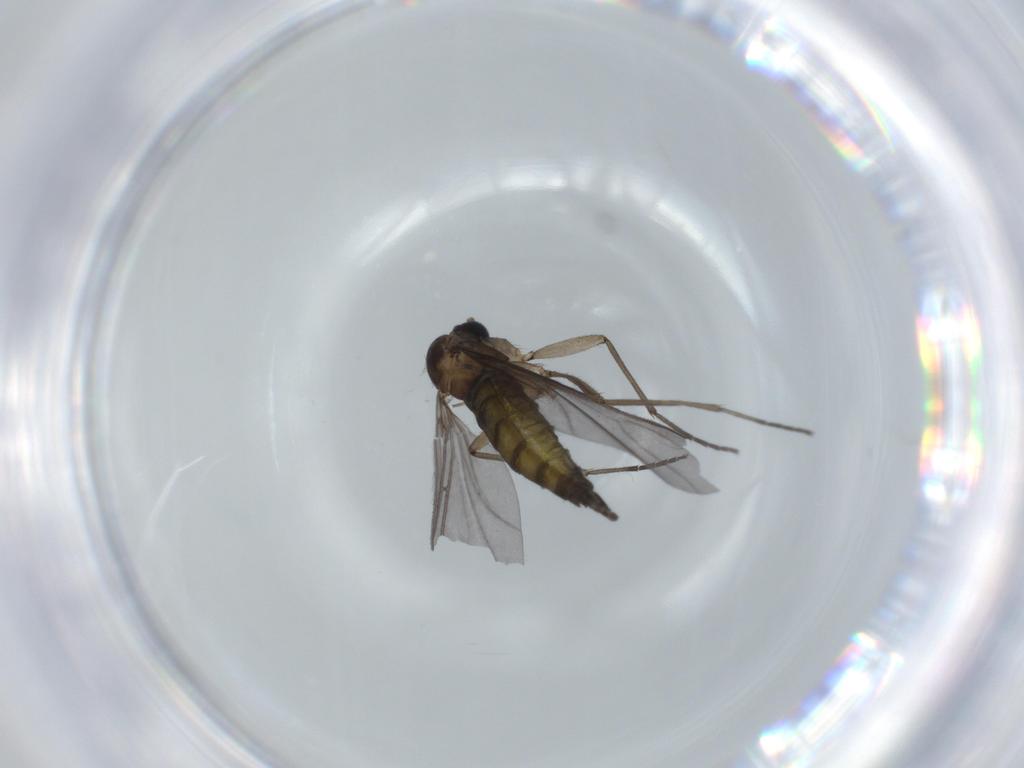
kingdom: Animalia
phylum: Arthropoda
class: Insecta
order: Diptera
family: Sciaridae
